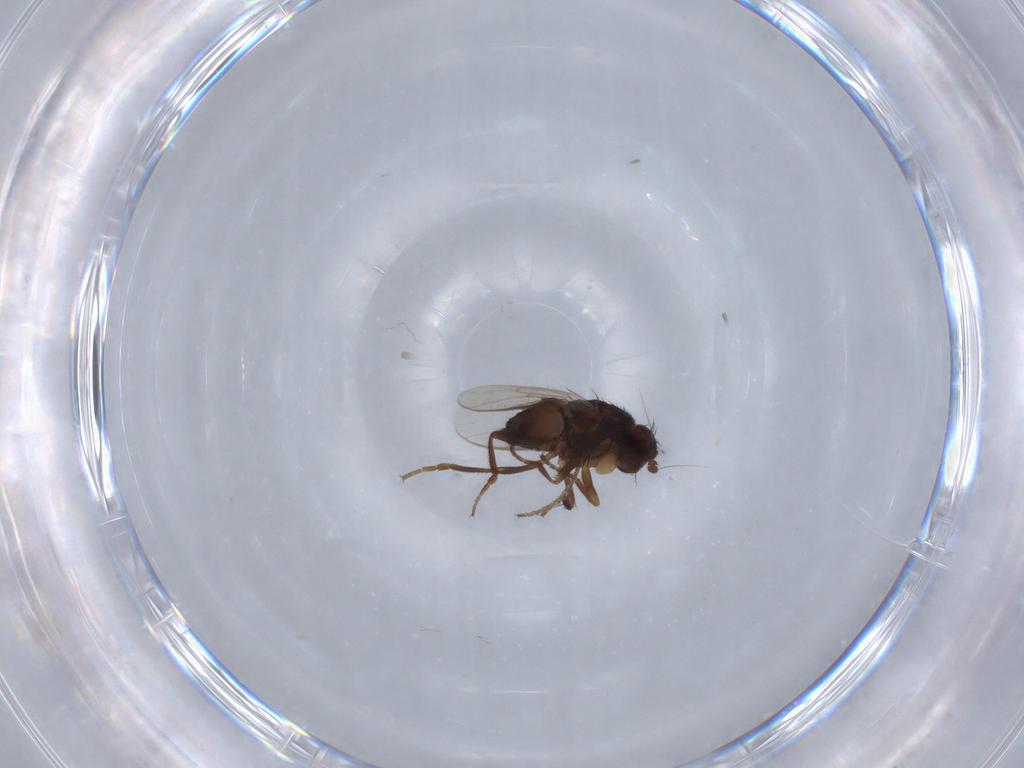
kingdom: Animalia
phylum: Arthropoda
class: Insecta
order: Diptera
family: Sphaeroceridae
